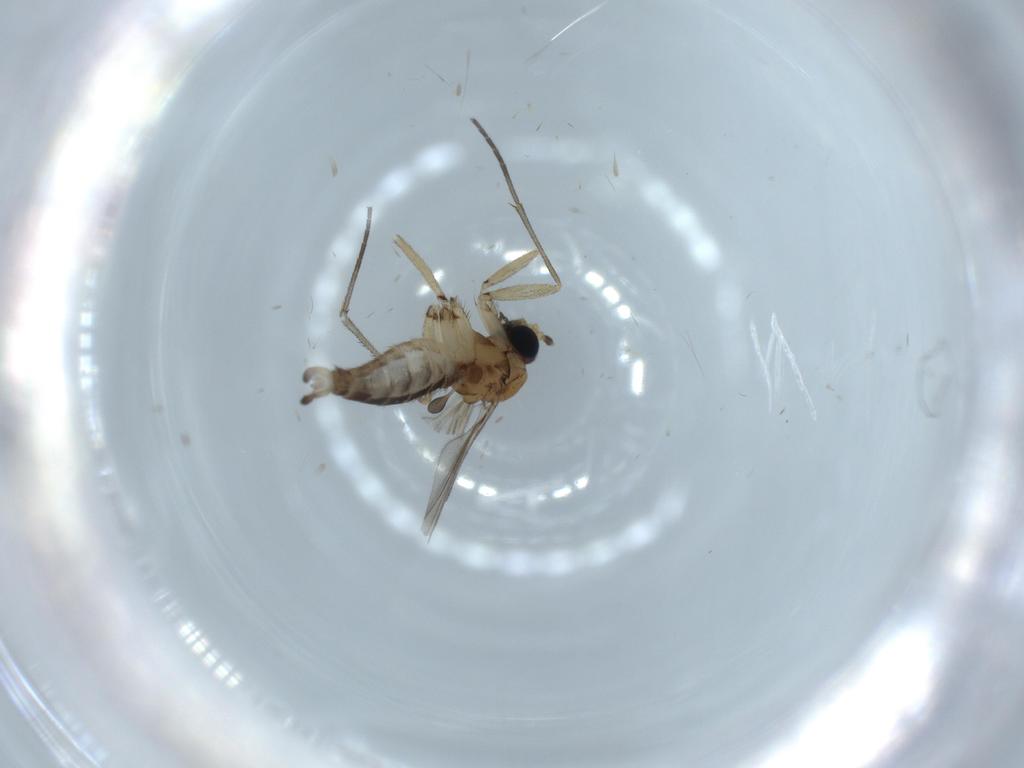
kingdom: Animalia
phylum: Arthropoda
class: Insecta
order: Diptera
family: Sciaridae
